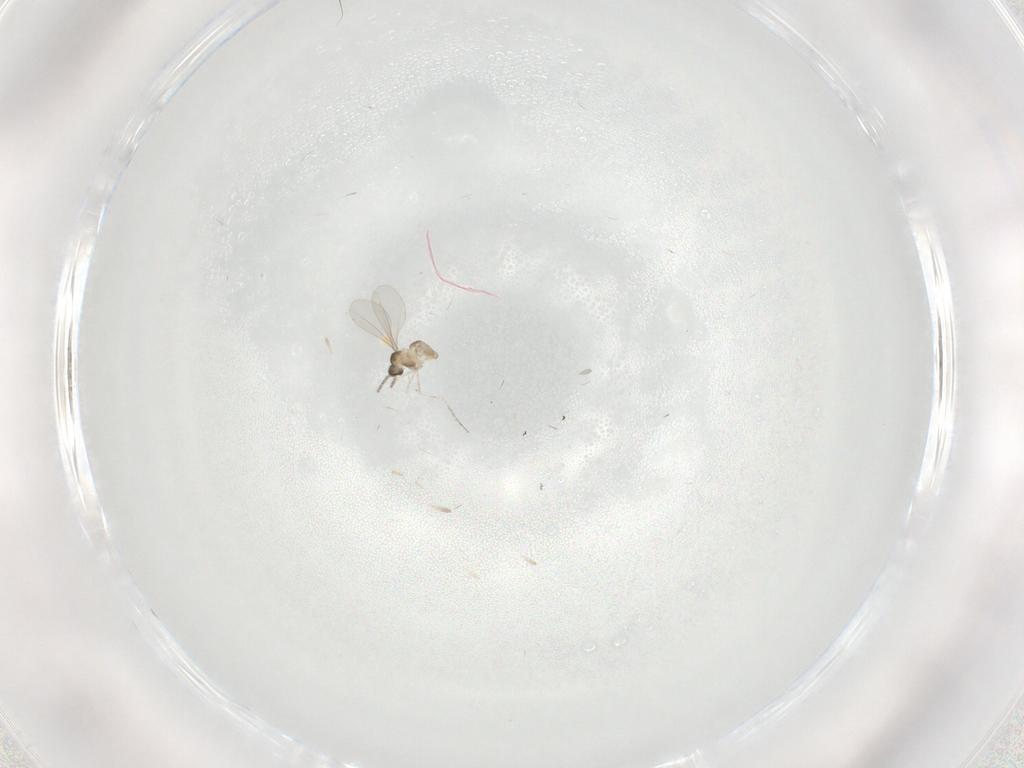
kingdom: Animalia
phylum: Arthropoda
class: Insecta
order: Diptera
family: Cecidomyiidae
